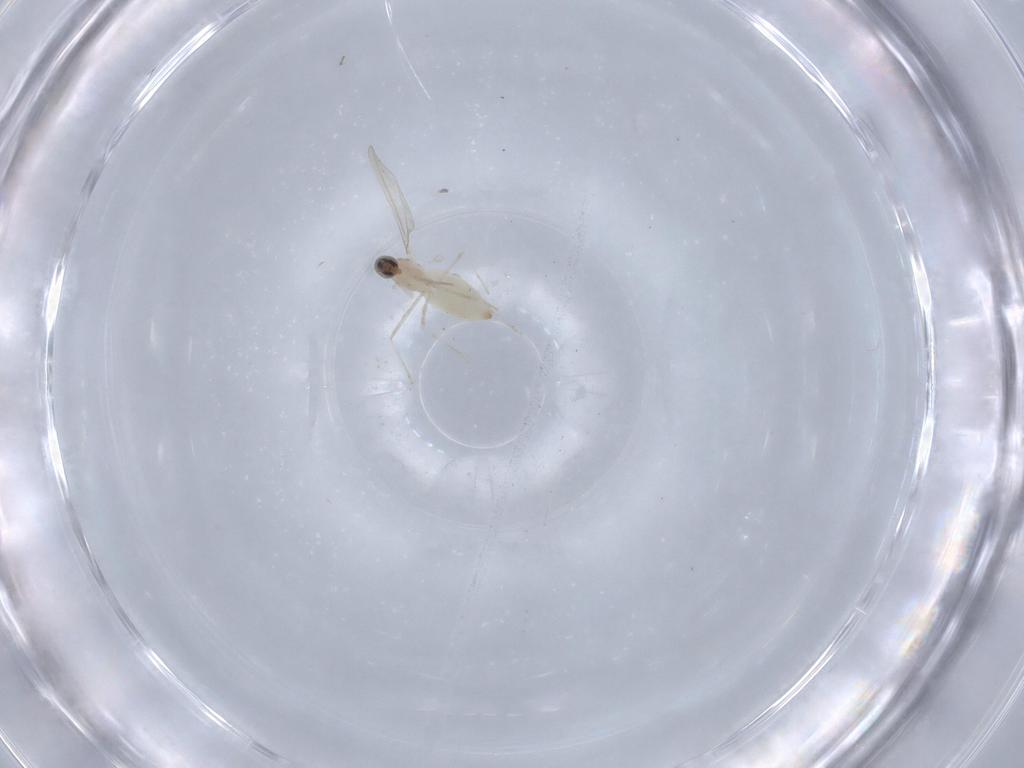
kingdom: Animalia
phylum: Arthropoda
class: Insecta
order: Diptera
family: Cecidomyiidae
